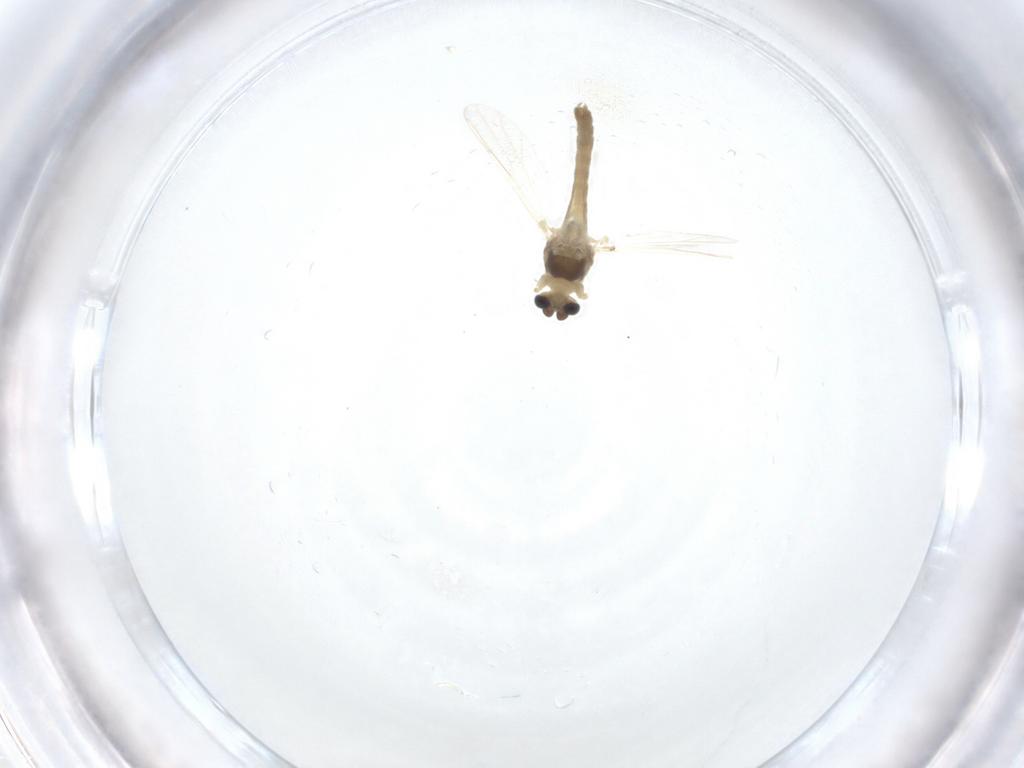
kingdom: Animalia
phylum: Arthropoda
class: Insecta
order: Diptera
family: Chironomidae
